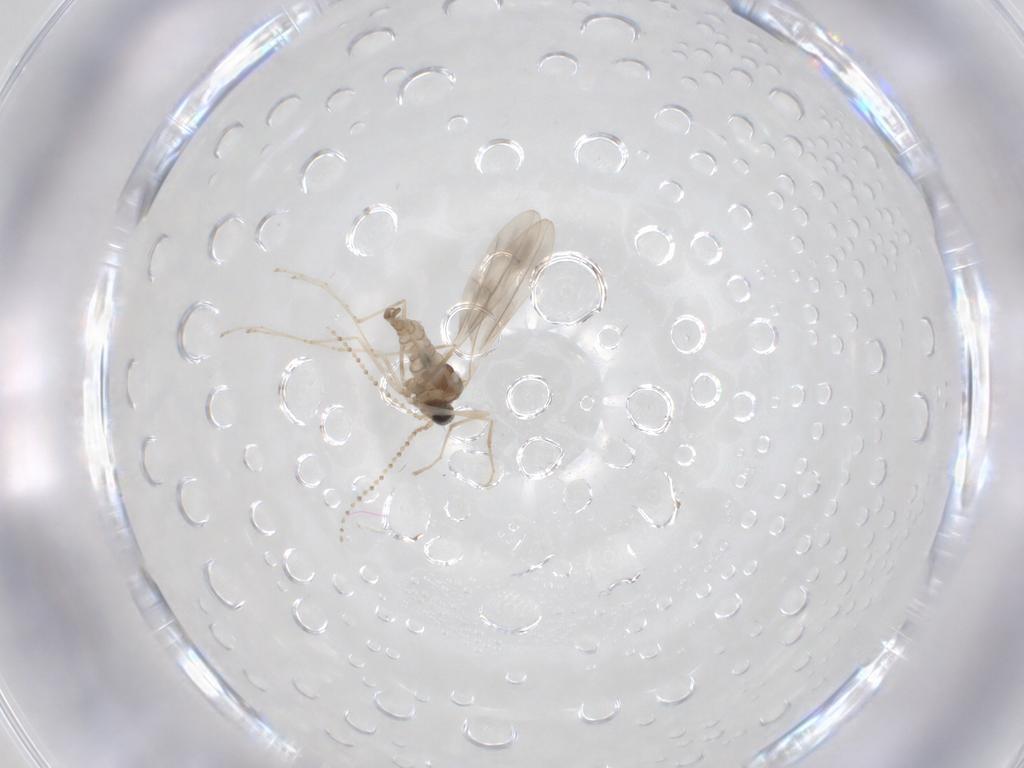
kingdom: Animalia
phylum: Arthropoda
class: Insecta
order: Diptera
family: Cecidomyiidae
